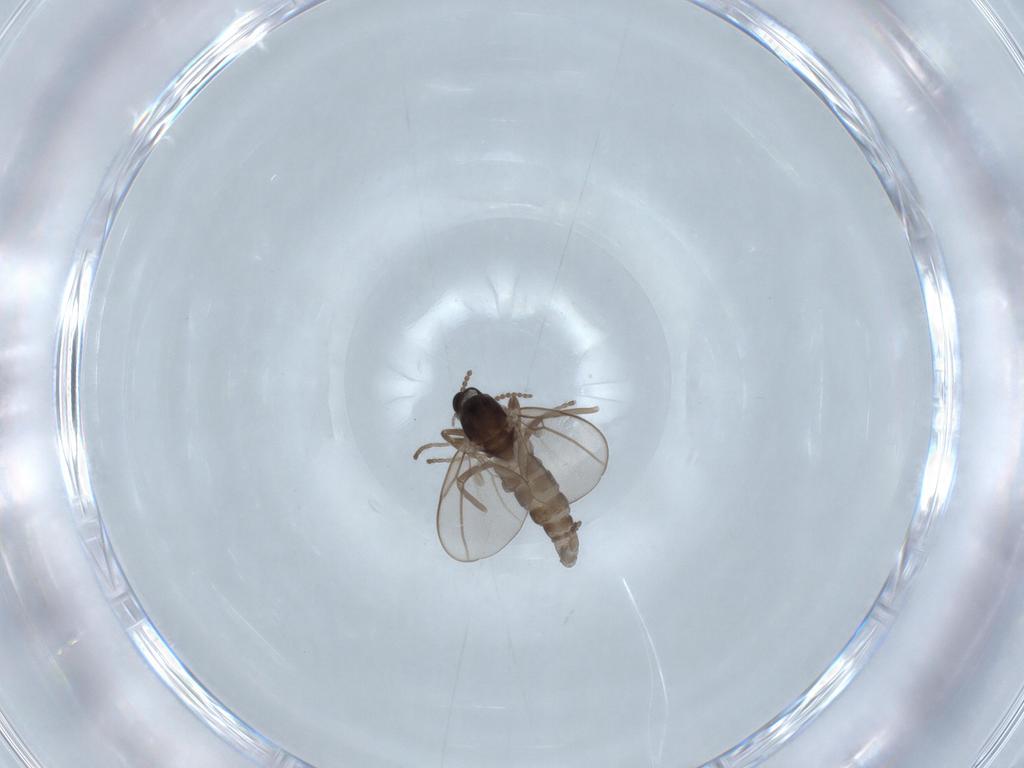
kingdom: Animalia
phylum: Arthropoda
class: Insecta
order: Diptera
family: Cecidomyiidae
